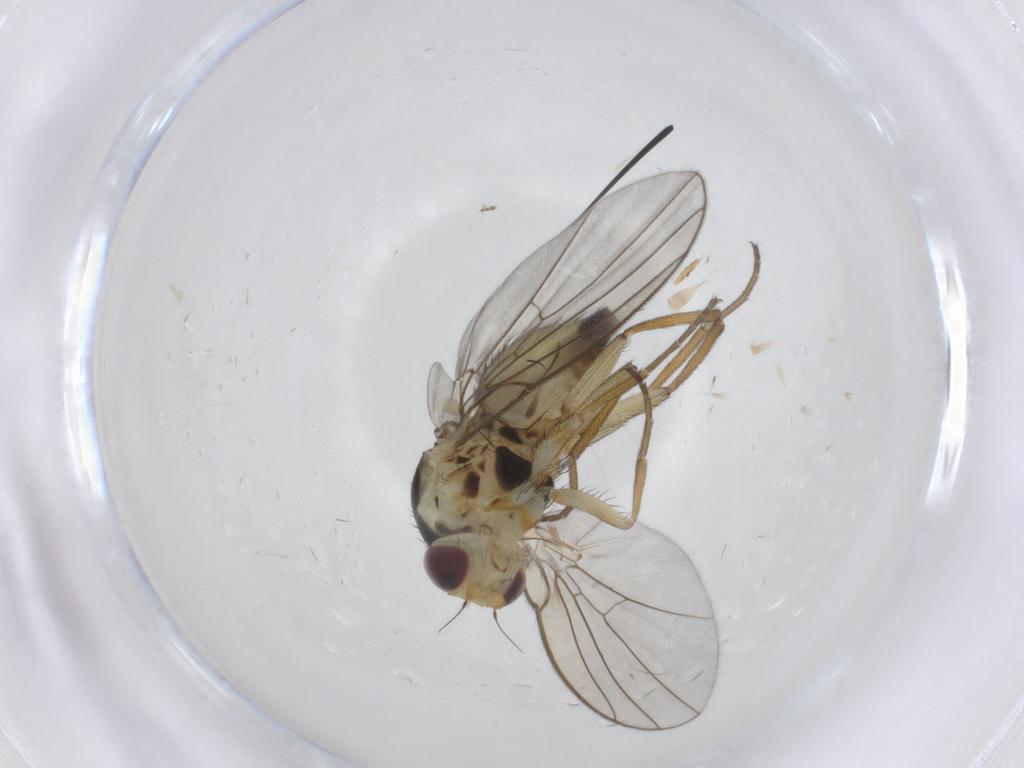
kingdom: Animalia
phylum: Arthropoda
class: Insecta
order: Diptera
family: Agromyzidae
